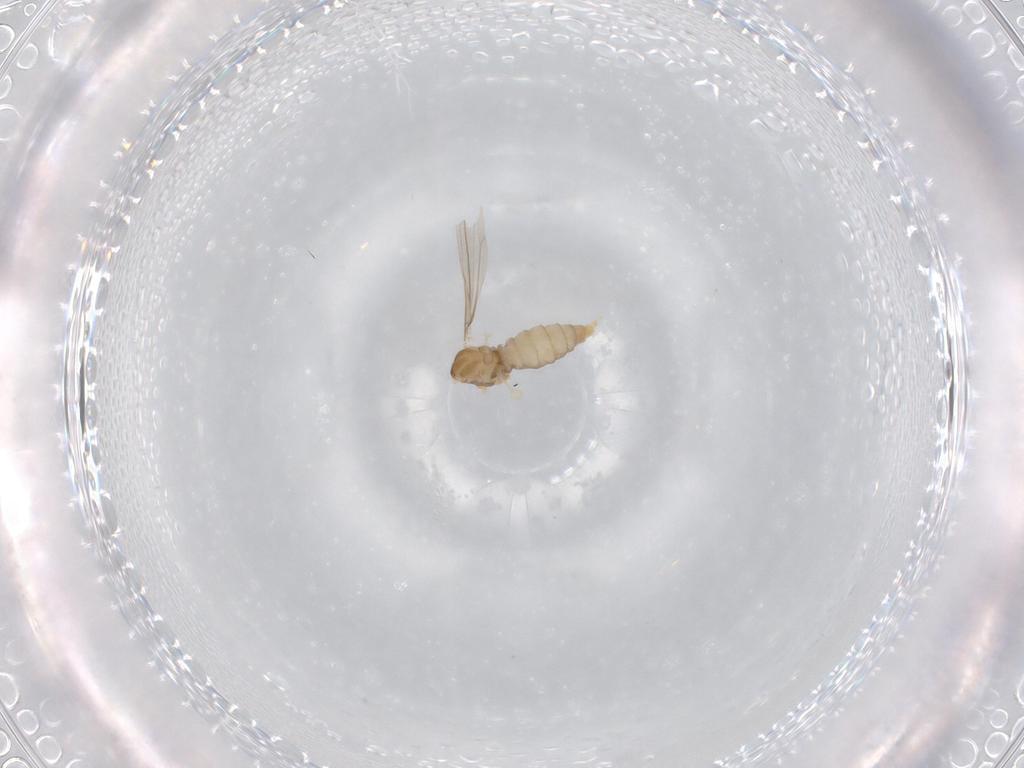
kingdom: Animalia
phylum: Arthropoda
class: Insecta
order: Diptera
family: Cecidomyiidae
